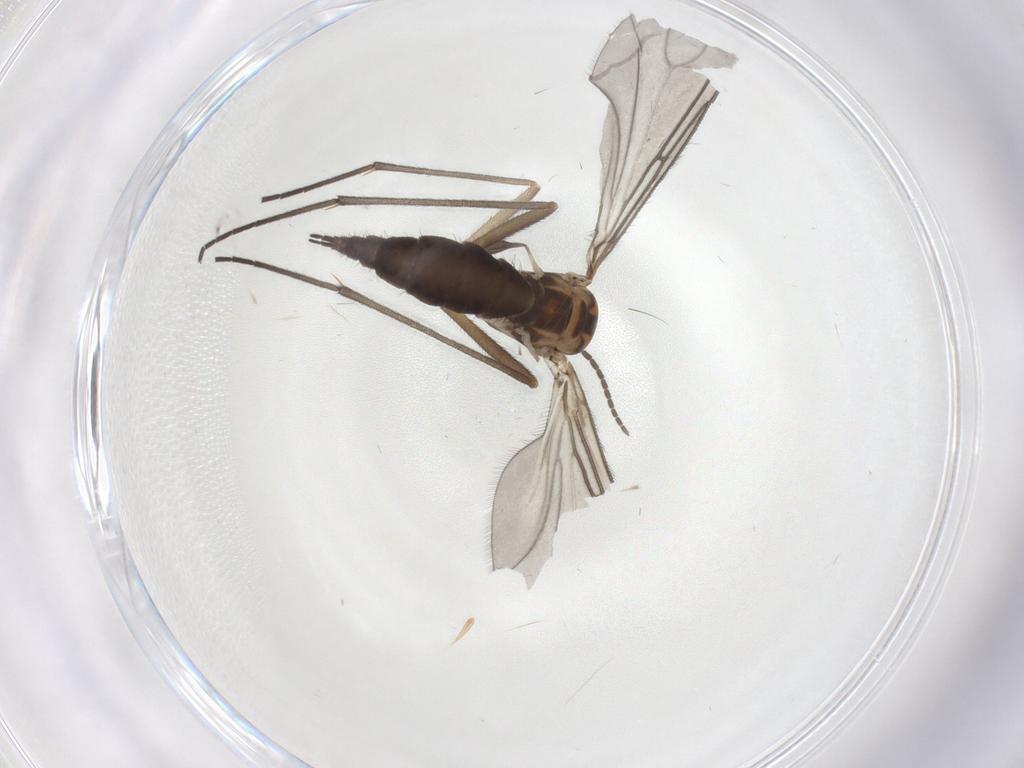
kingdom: Animalia
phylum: Arthropoda
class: Insecta
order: Diptera
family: Sciaridae
